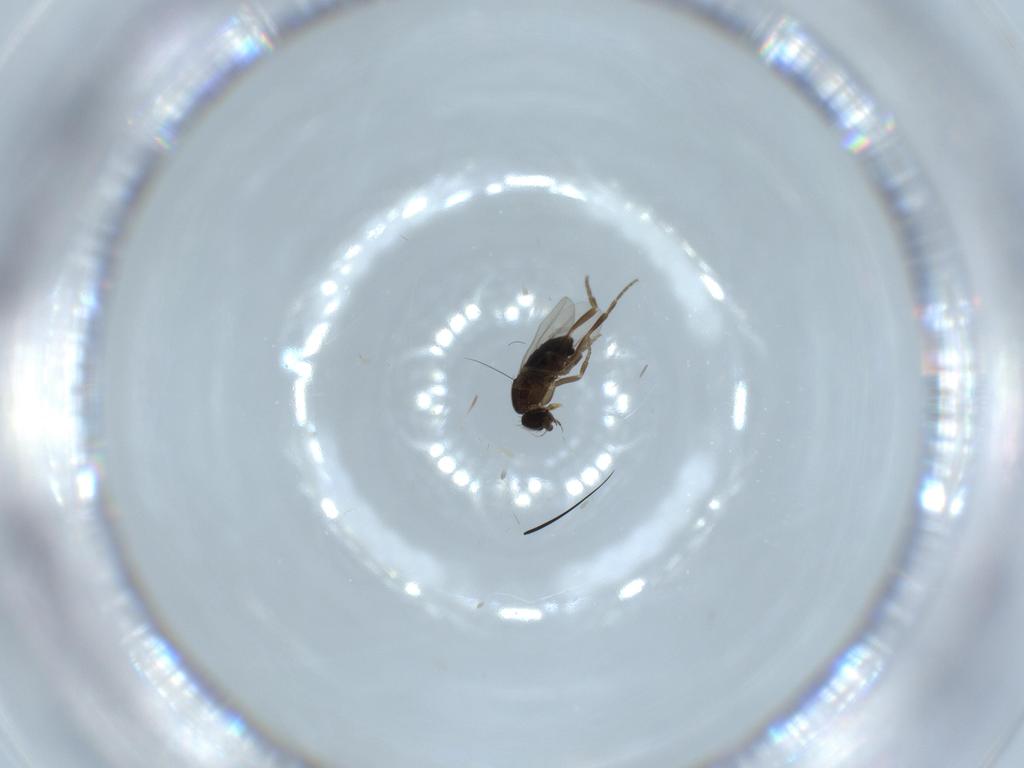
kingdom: Animalia
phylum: Arthropoda
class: Insecta
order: Diptera
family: Phoridae
